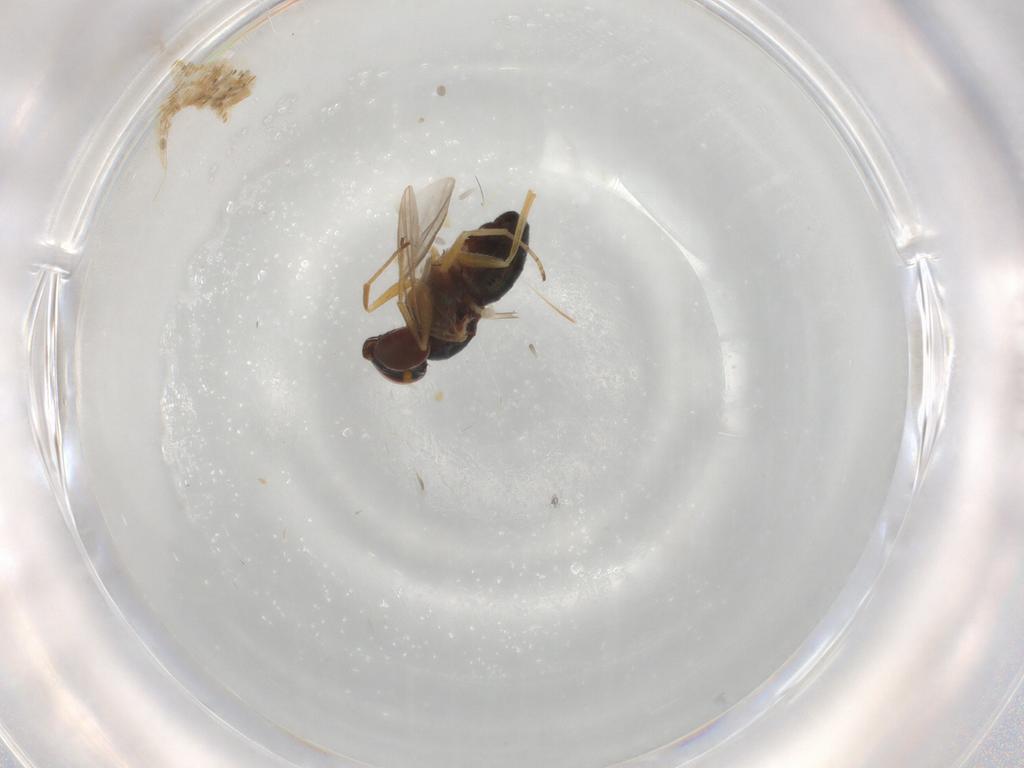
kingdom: Animalia
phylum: Arthropoda
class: Insecta
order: Diptera
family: Dolichopodidae
